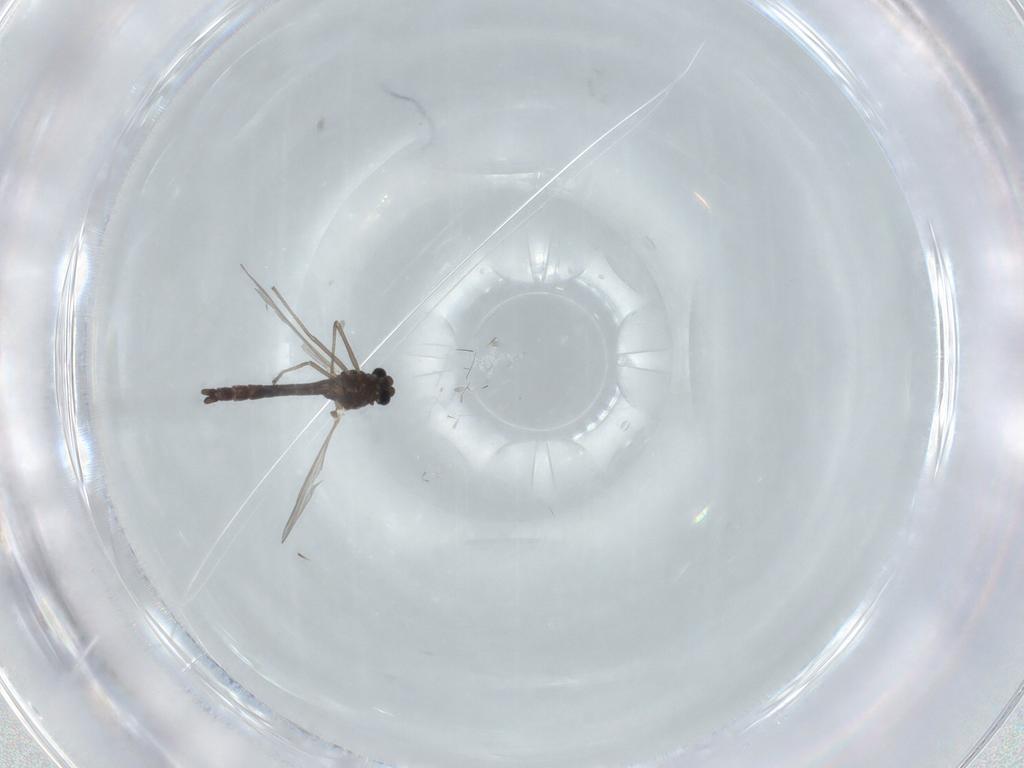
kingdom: Animalia
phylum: Arthropoda
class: Insecta
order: Diptera
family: Chironomidae
